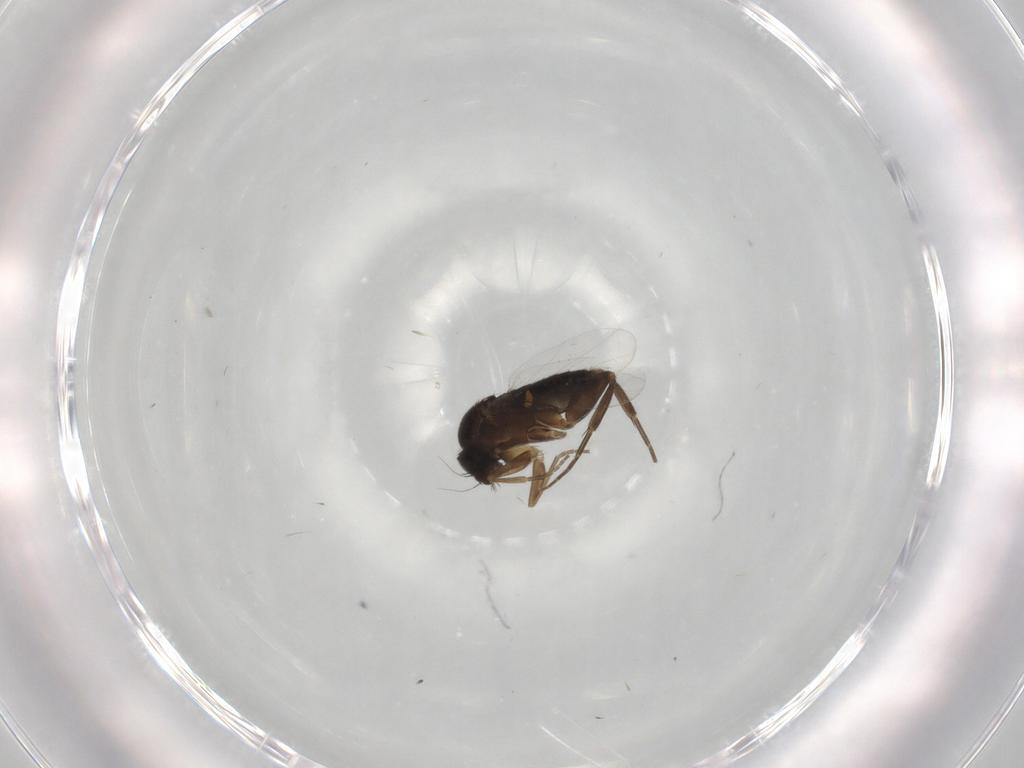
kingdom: Animalia
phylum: Arthropoda
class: Insecta
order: Diptera
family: Phoridae
